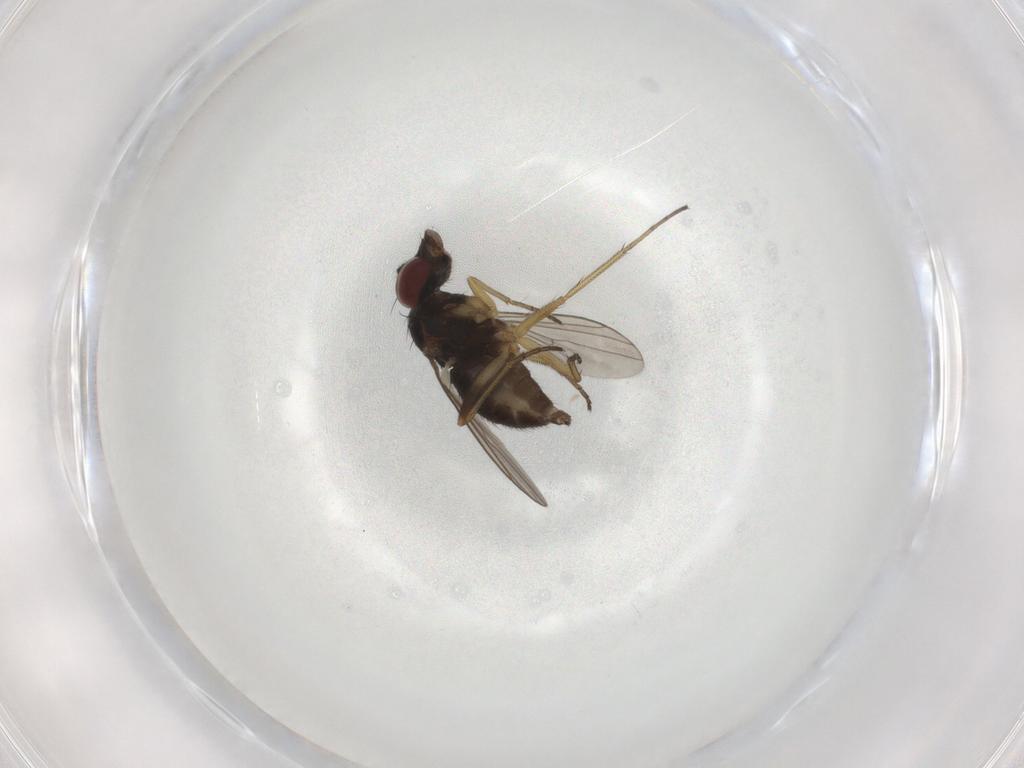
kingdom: Animalia
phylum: Arthropoda
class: Insecta
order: Diptera
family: Dolichopodidae
